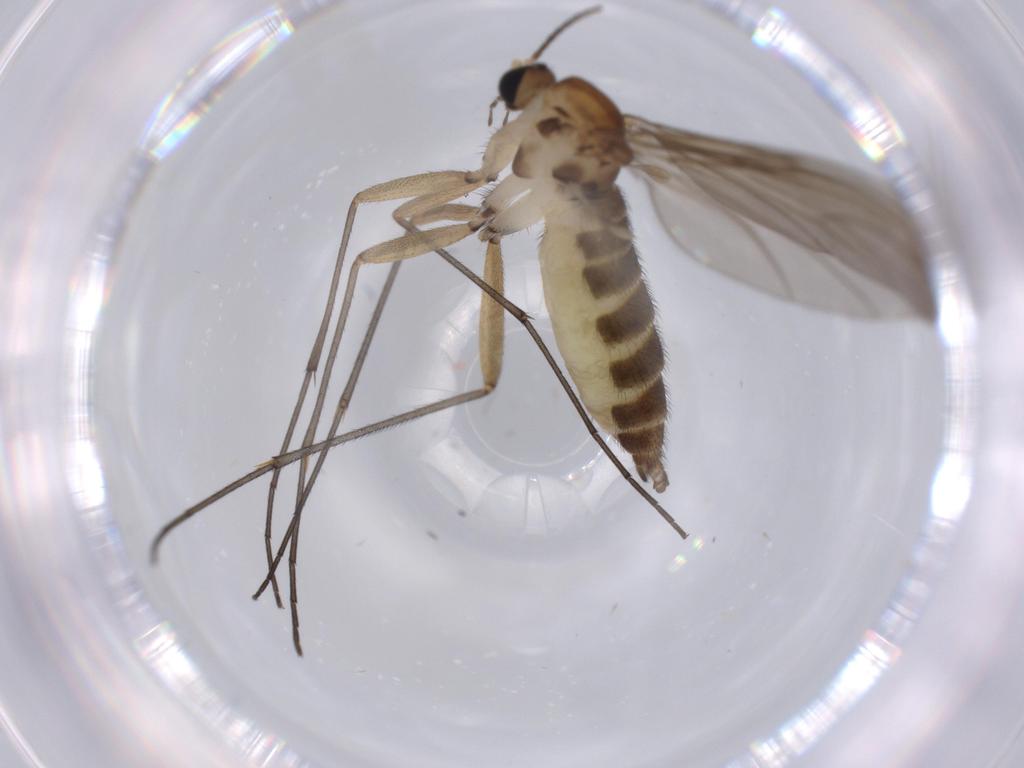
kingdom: Animalia
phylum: Arthropoda
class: Insecta
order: Diptera
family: Sciaridae
